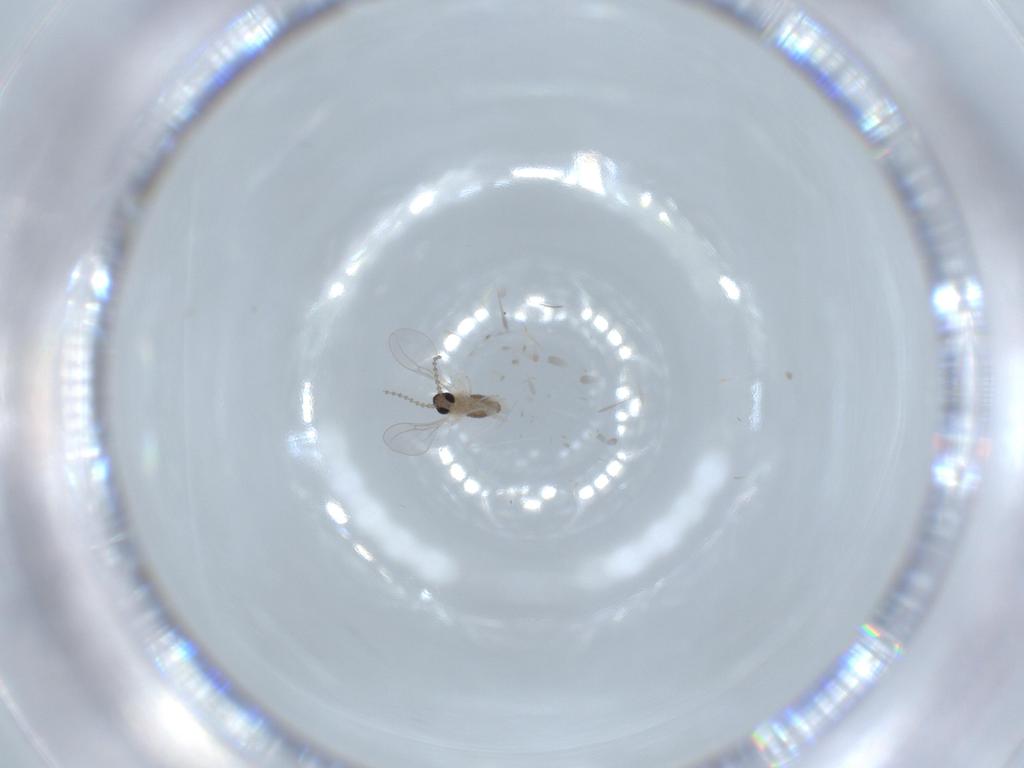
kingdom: Animalia
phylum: Arthropoda
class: Insecta
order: Diptera
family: Cecidomyiidae
